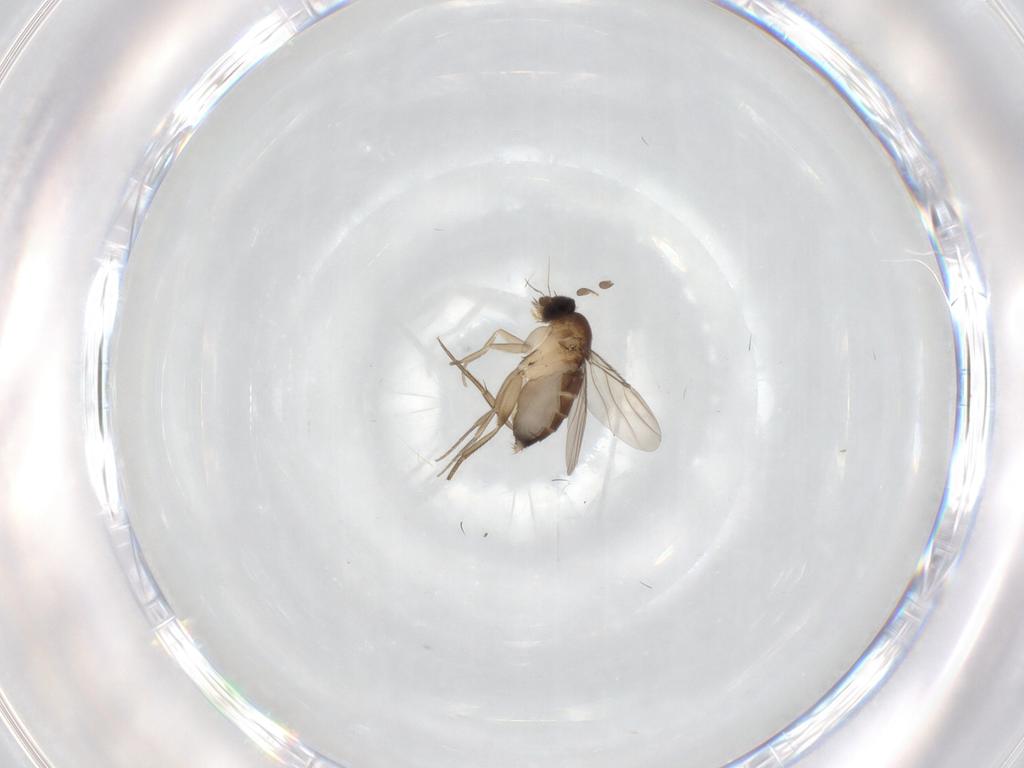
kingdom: Animalia
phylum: Arthropoda
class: Insecta
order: Diptera
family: Phoridae
